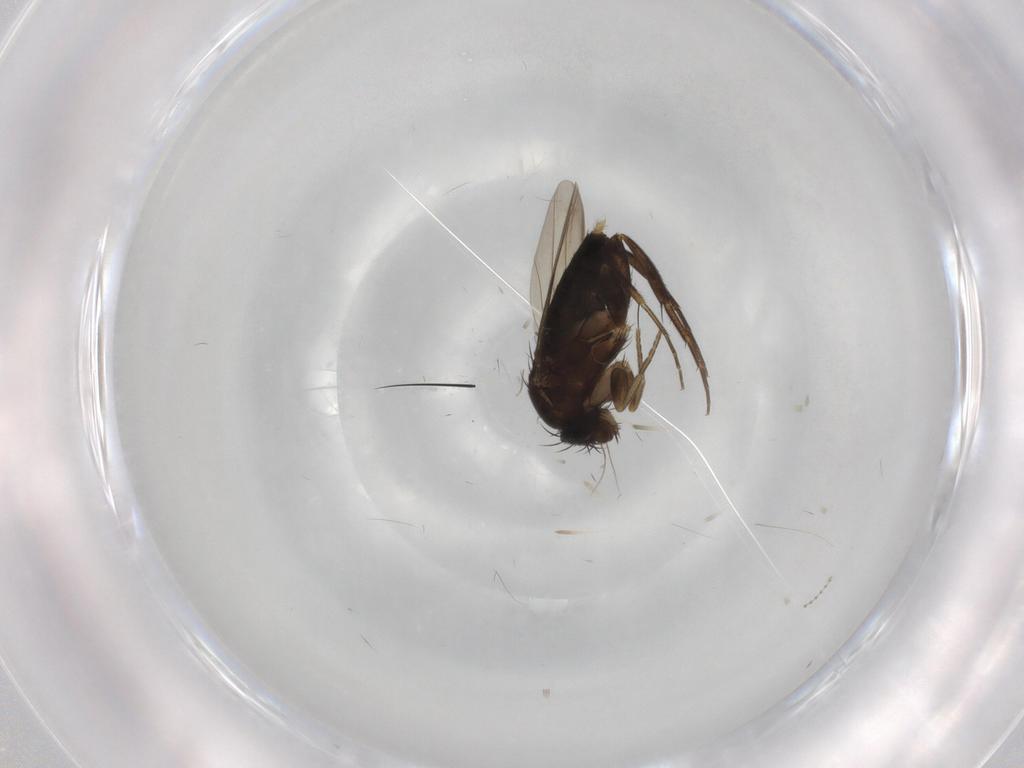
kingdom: Animalia
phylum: Arthropoda
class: Insecta
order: Diptera
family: Phoridae
